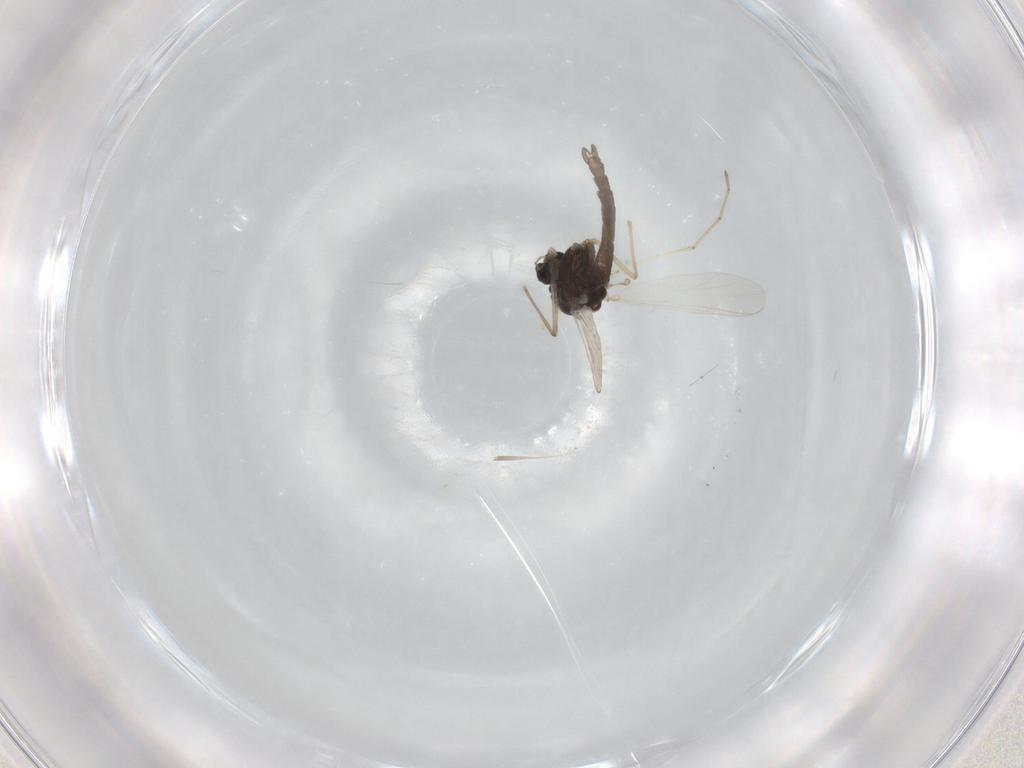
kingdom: Animalia
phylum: Arthropoda
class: Insecta
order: Diptera
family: Cecidomyiidae
